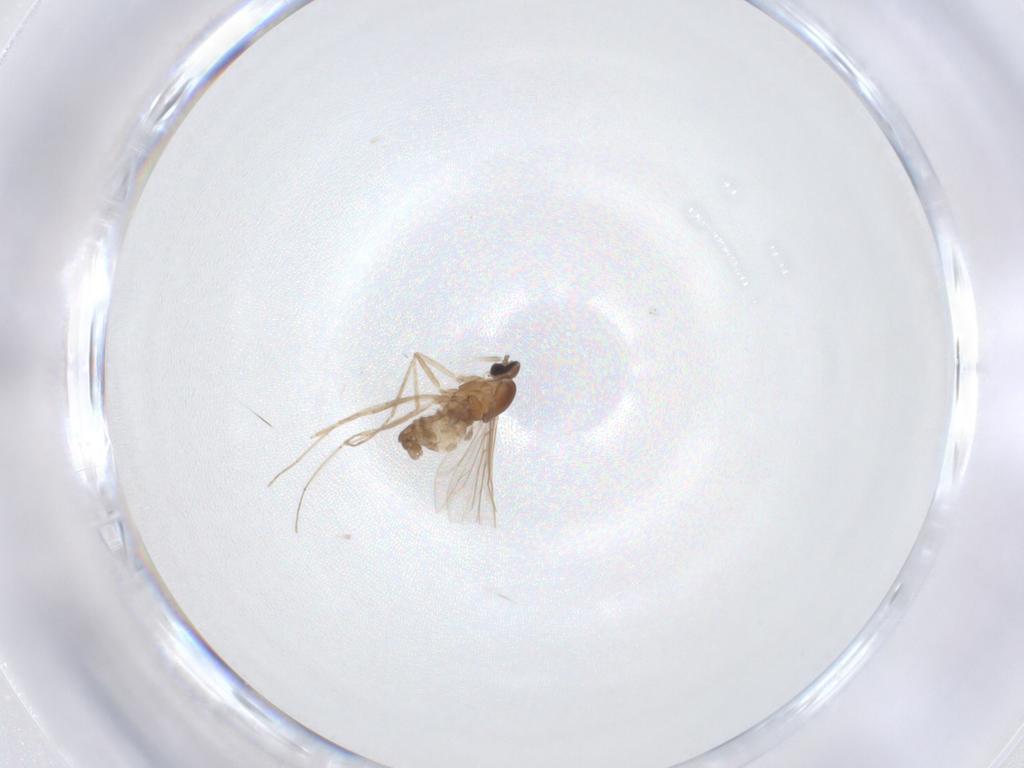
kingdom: Animalia
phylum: Arthropoda
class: Insecta
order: Diptera
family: Cecidomyiidae
